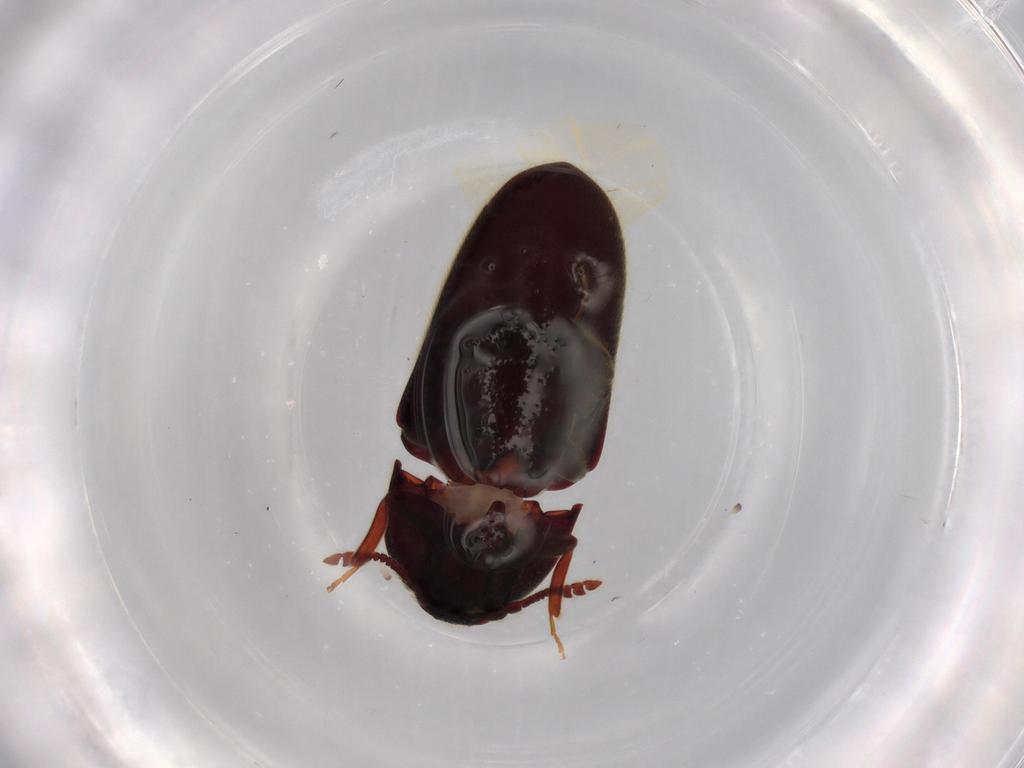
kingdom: Animalia
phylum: Arthropoda
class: Insecta
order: Coleoptera
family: Throscidae
